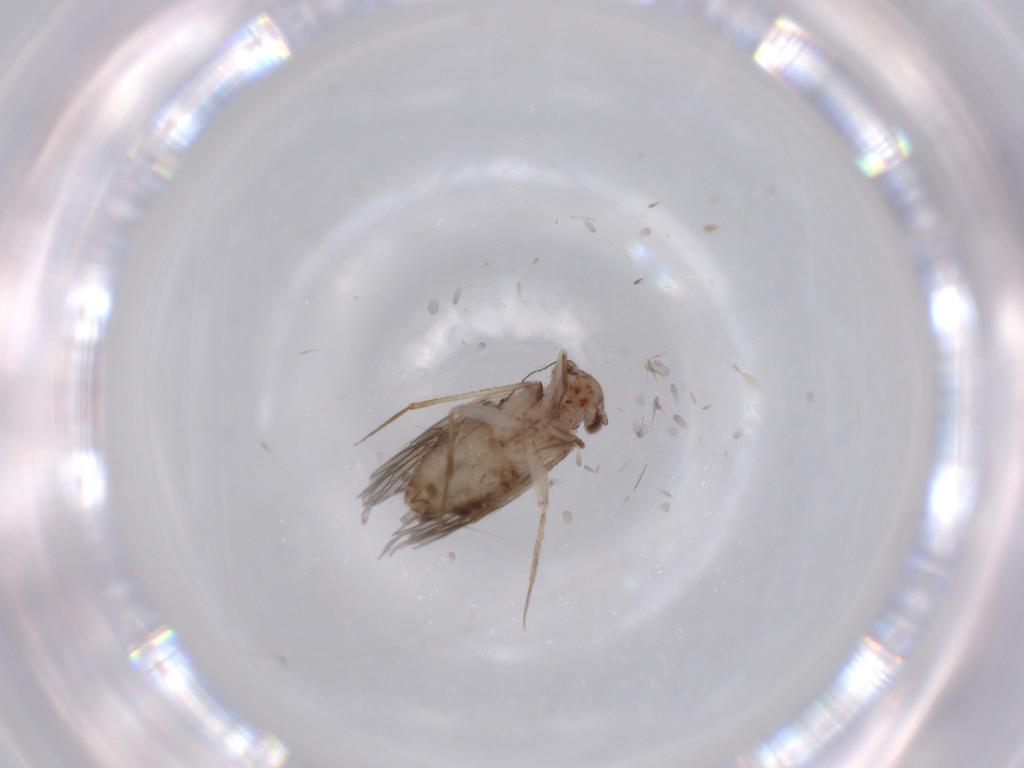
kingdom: Animalia
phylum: Arthropoda
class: Insecta
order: Psocodea
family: Lepidopsocidae
